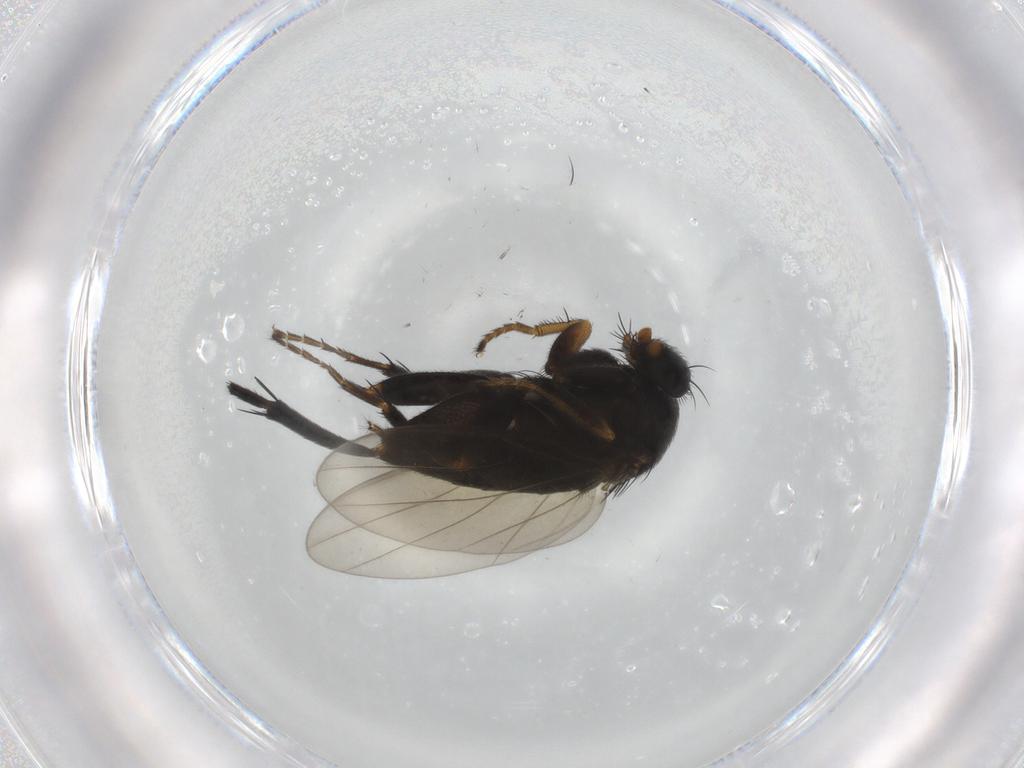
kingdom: Animalia
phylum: Arthropoda
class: Insecta
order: Diptera
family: Phoridae
